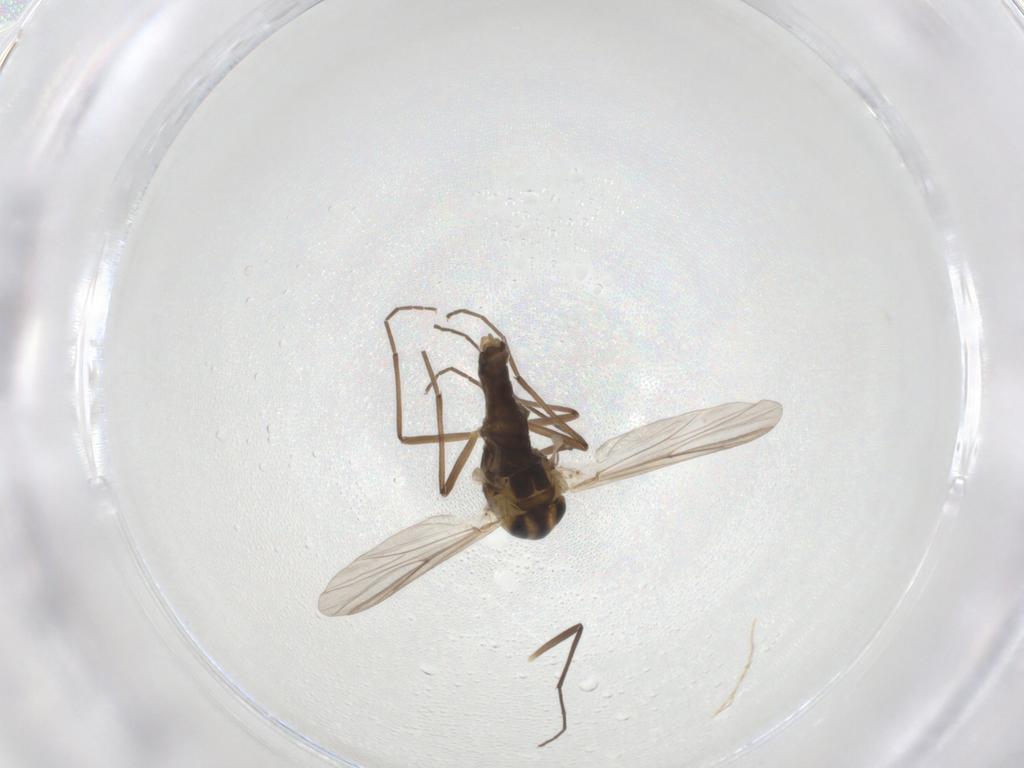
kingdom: Animalia
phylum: Arthropoda
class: Insecta
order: Diptera
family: Chironomidae
